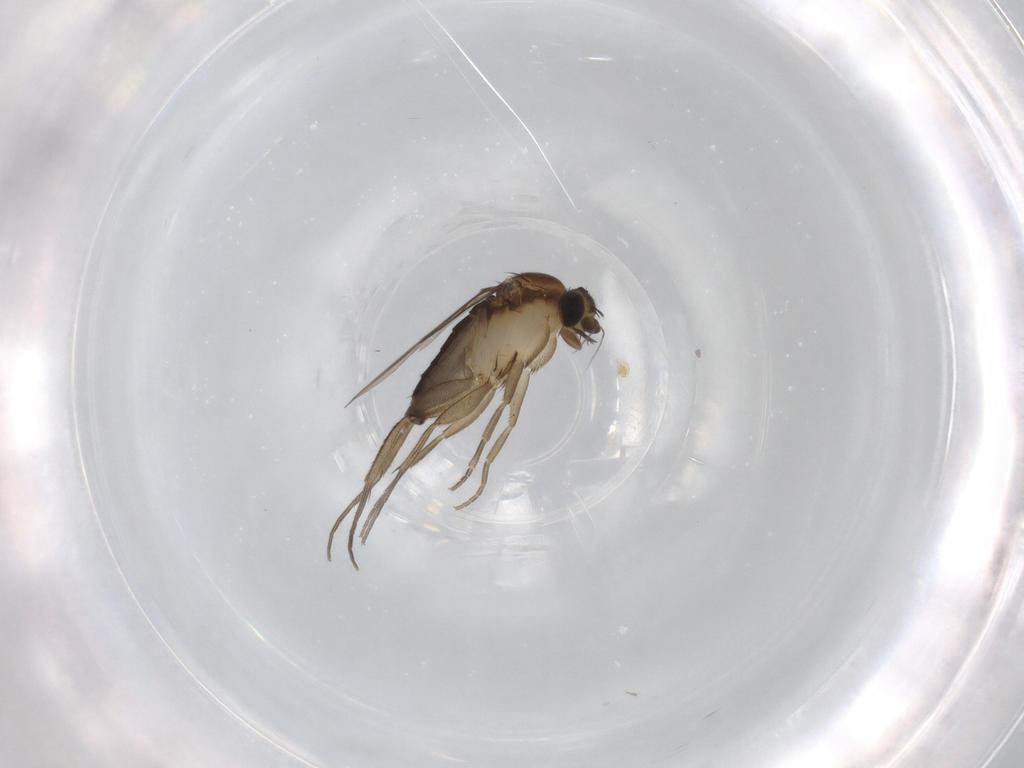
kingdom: Animalia
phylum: Arthropoda
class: Insecta
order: Diptera
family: Phoridae
